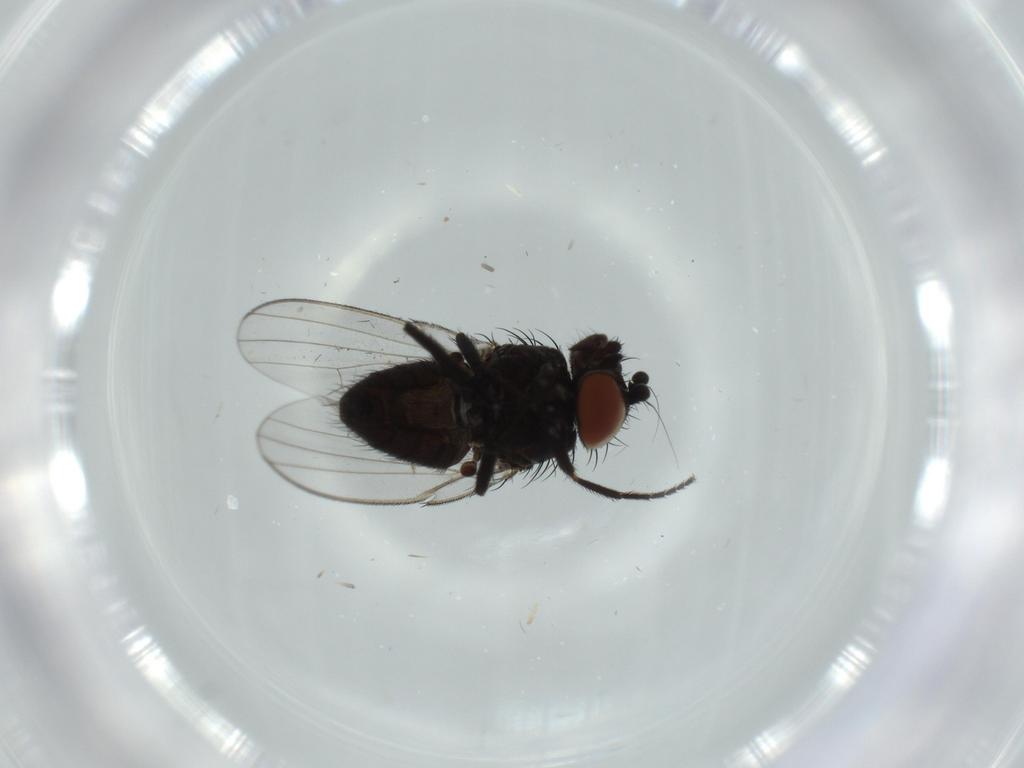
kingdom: Animalia
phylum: Arthropoda
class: Insecta
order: Diptera
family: Milichiidae
